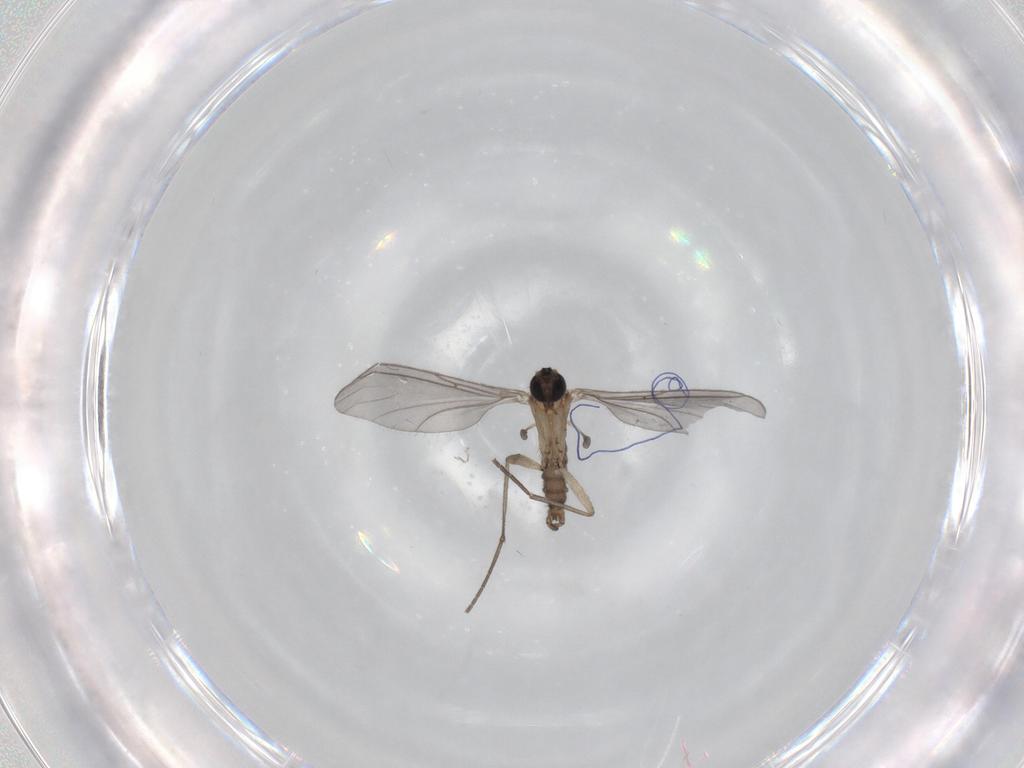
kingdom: Animalia
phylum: Arthropoda
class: Insecta
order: Diptera
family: Sciaridae
